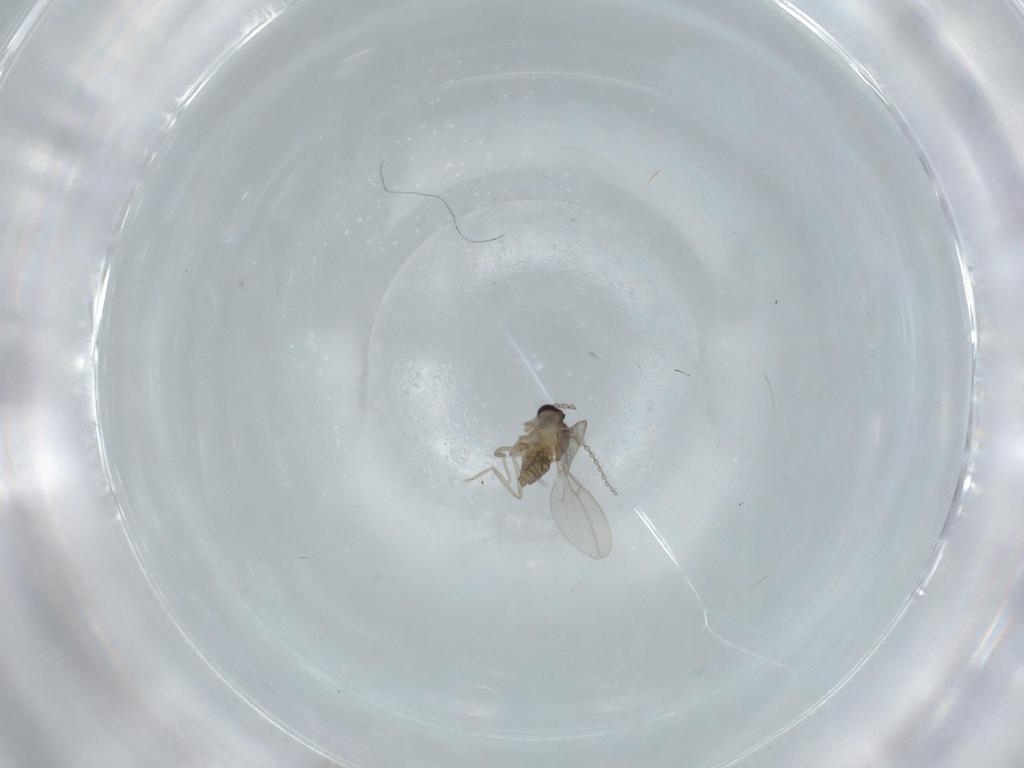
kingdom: Animalia
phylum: Arthropoda
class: Insecta
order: Diptera
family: Cecidomyiidae
